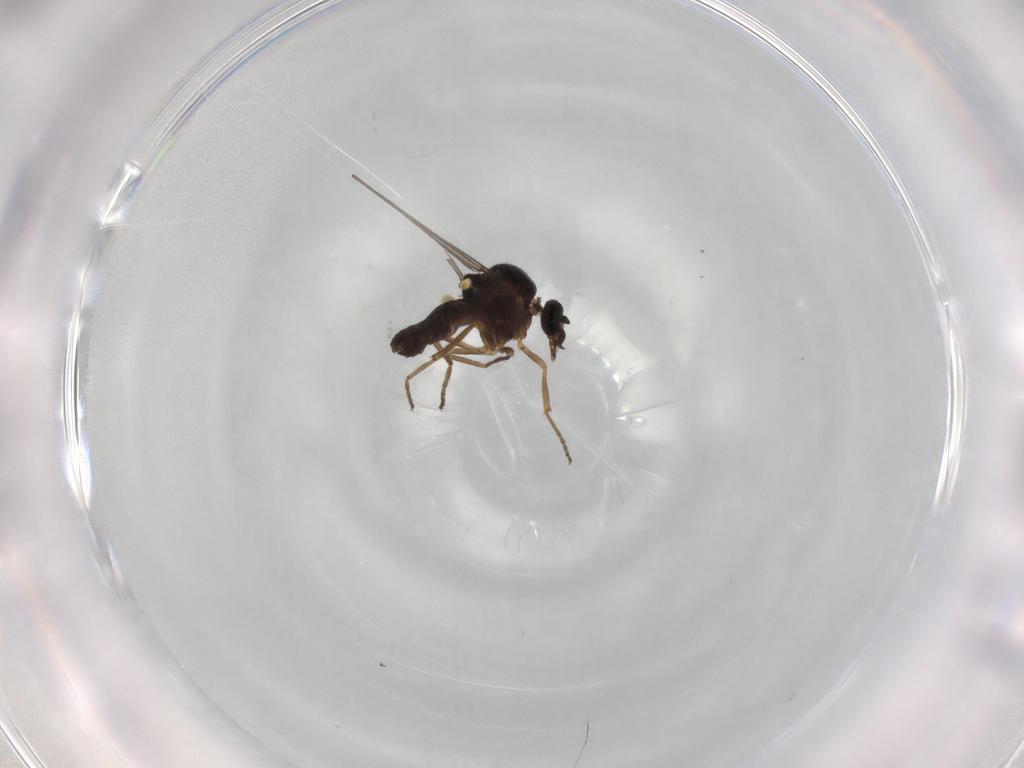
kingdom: Animalia
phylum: Arthropoda
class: Insecta
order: Diptera
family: Ceratopogonidae
